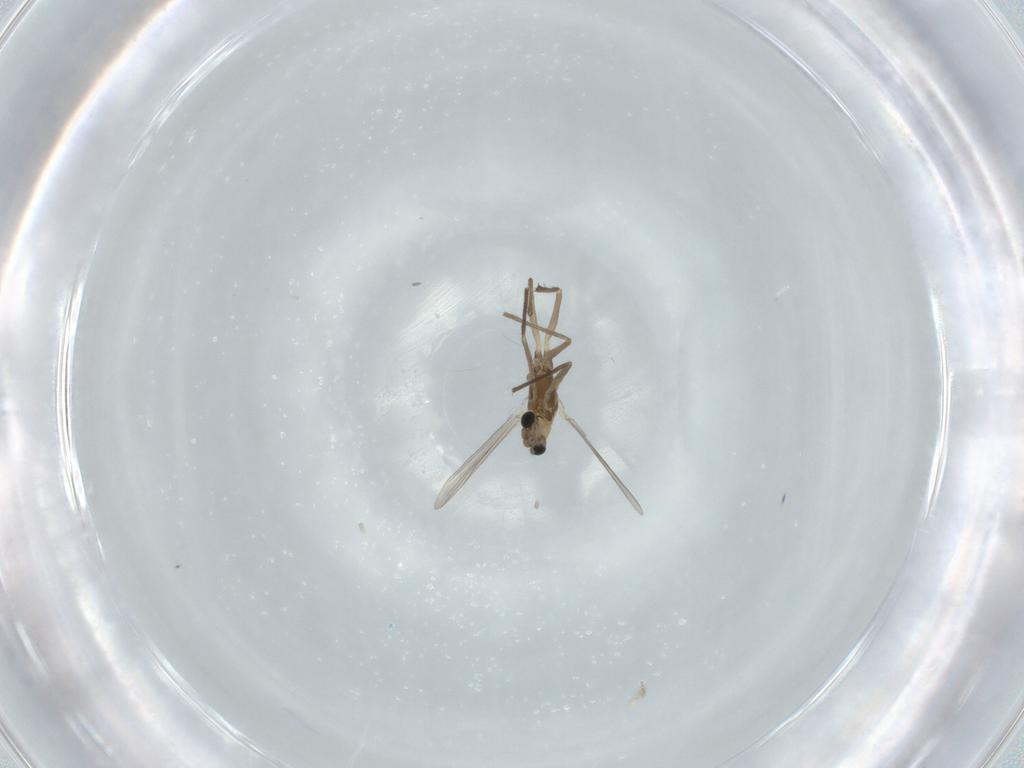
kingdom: Animalia
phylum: Arthropoda
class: Insecta
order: Diptera
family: Chironomidae
